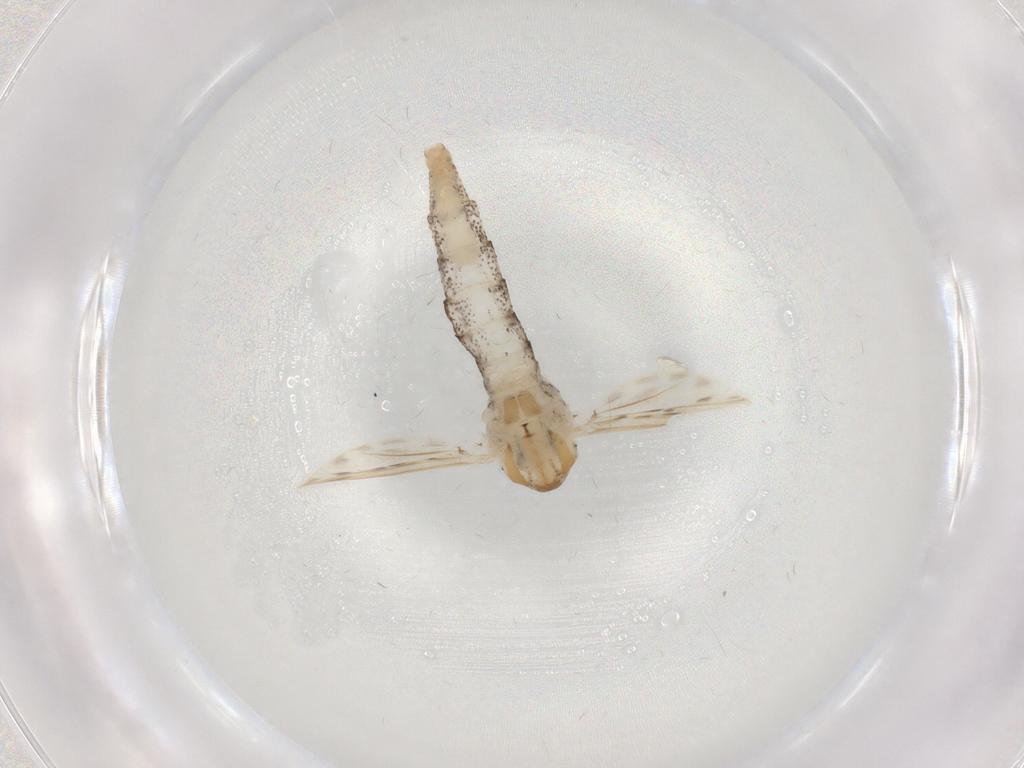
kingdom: Animalia
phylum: Arthropoda
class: Insecta
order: Diptera
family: Chaoboridae
